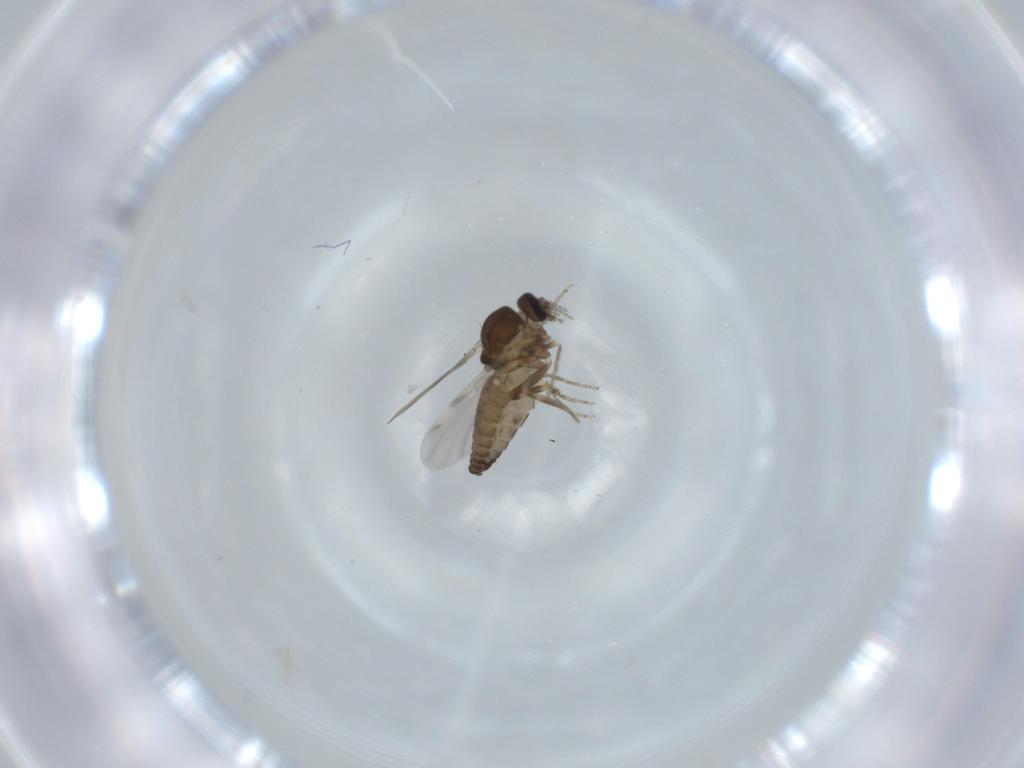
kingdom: Animalia
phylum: Arthropoda
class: Insecta
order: Diptera
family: Ceratopogonidae
